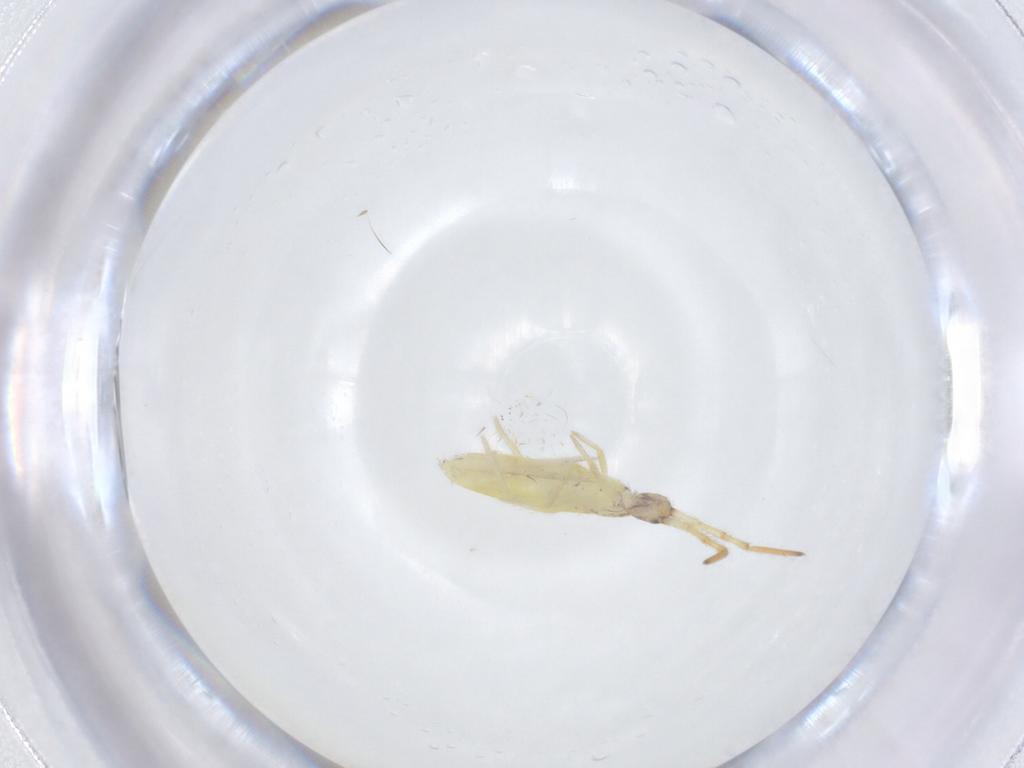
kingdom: Animalia
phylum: Arthropoda
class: Collembola
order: Entomobryomorpha
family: Entomobryidae
